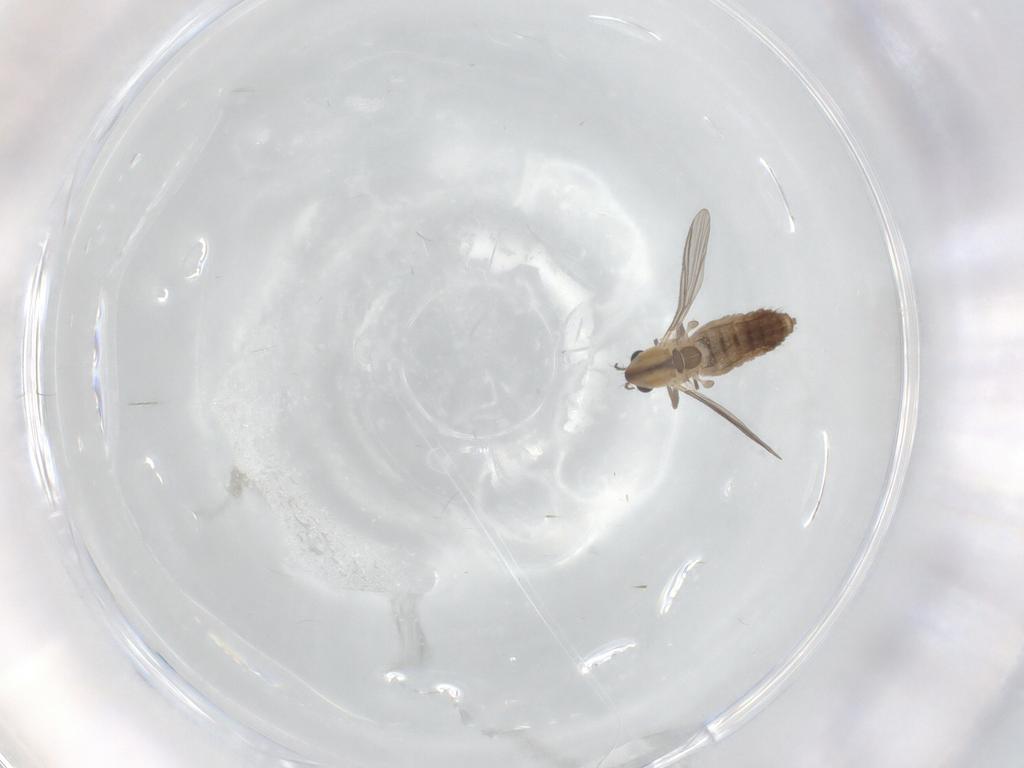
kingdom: Animalia
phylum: Arthropoda
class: Insecta
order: Diptera
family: Chironomidae
